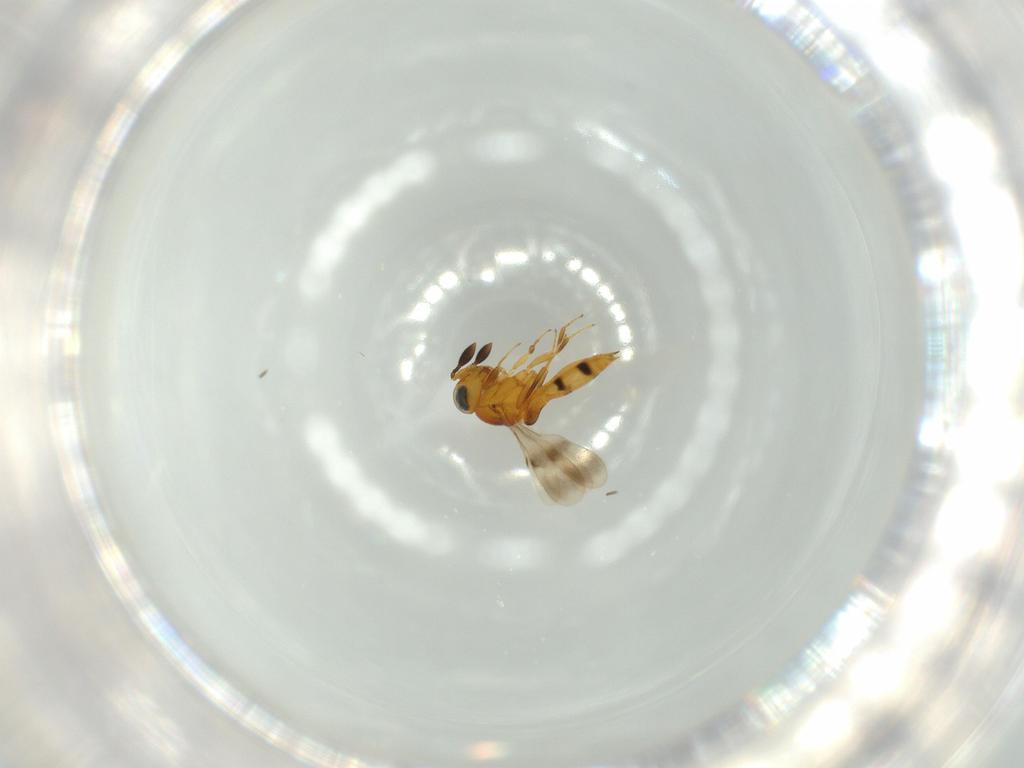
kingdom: Animalia
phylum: Arthropoda
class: Insecta
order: Hymenoptera
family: Scelionidae
